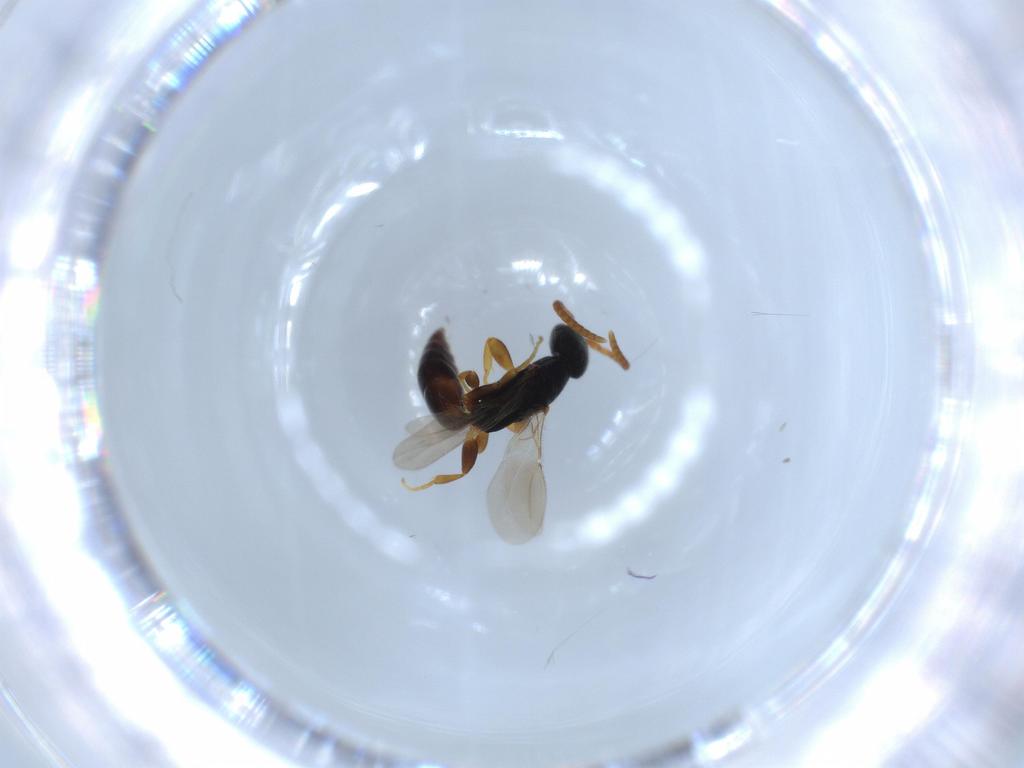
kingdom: Animalia
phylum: Arthropoda
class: Insecta
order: Hymenoptera
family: Bethylidae
